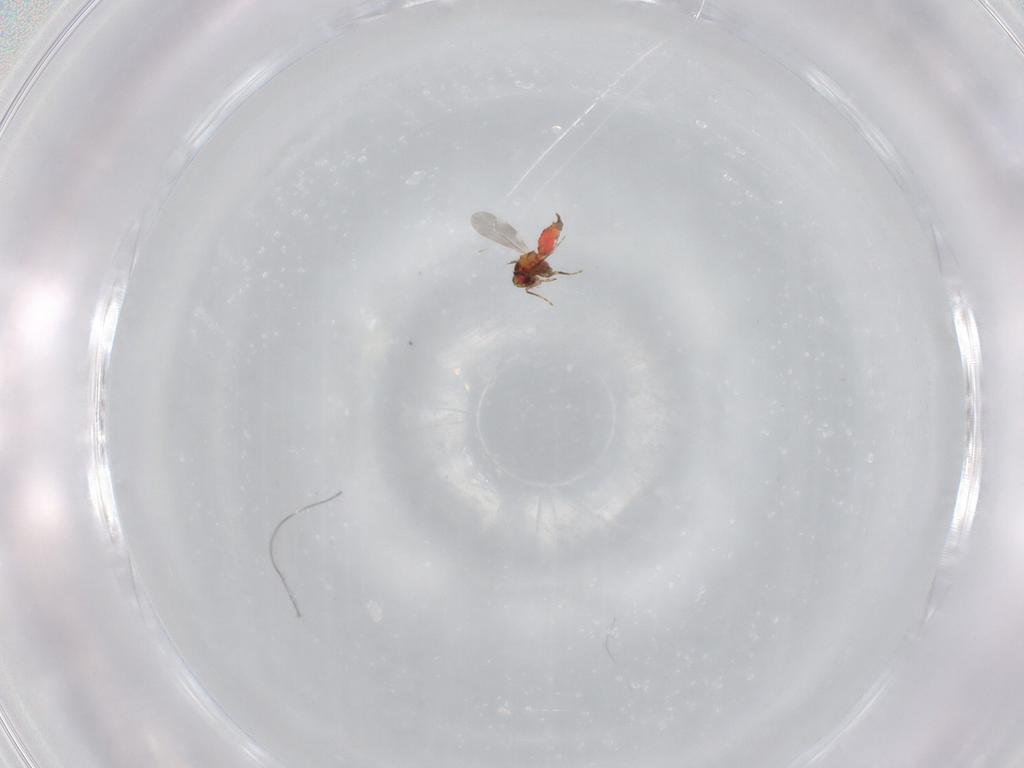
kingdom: Animalia
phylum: Arthropoda
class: Insecta
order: Hemiptera
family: Aleyrodidae
